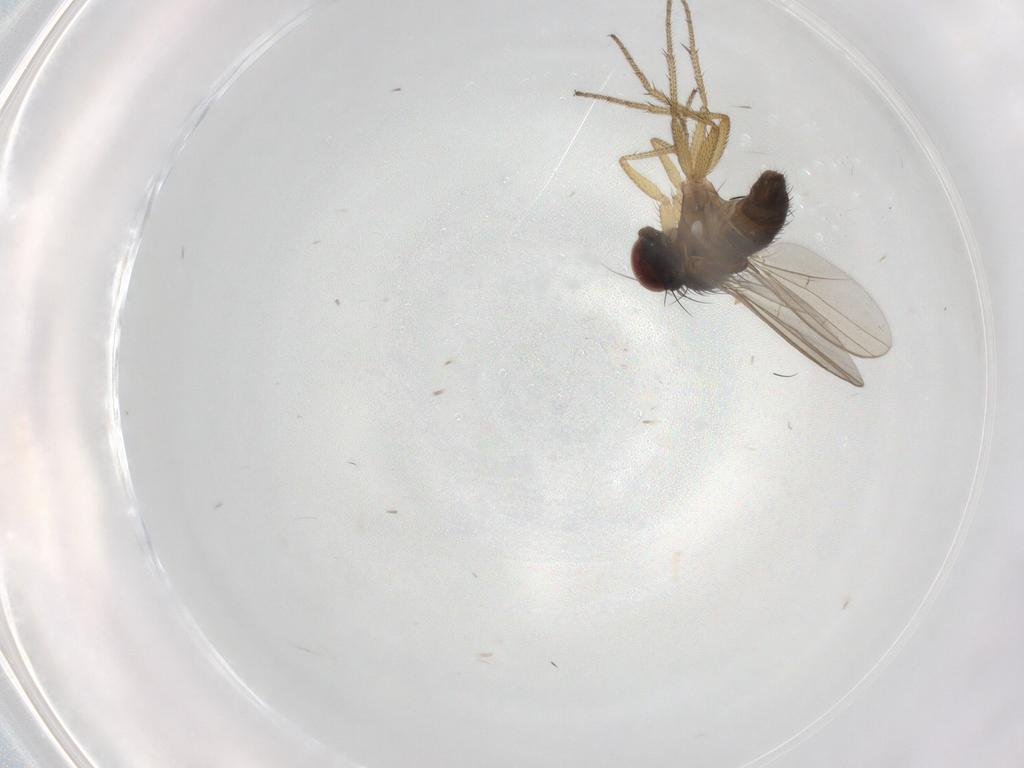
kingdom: Animalia
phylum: Arthropoda
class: Insecta
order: Diptera
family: Dolichopodidae
